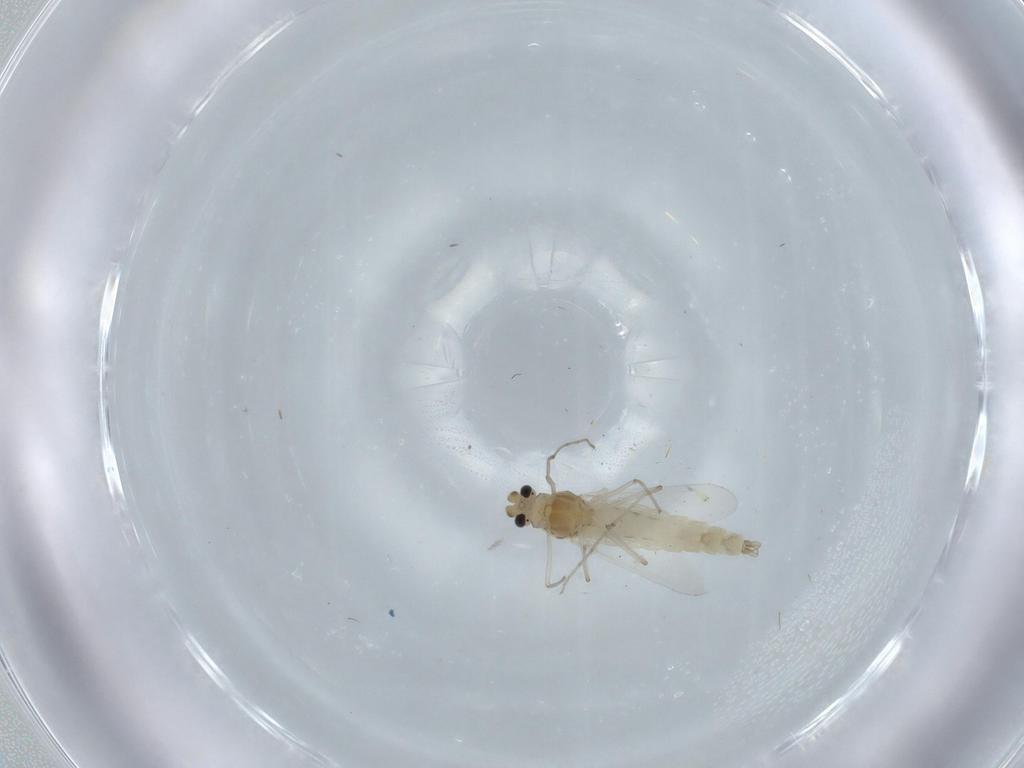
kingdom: Animalia
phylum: Arthropoda
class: Insecta
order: Diptera
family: Chironomidae
